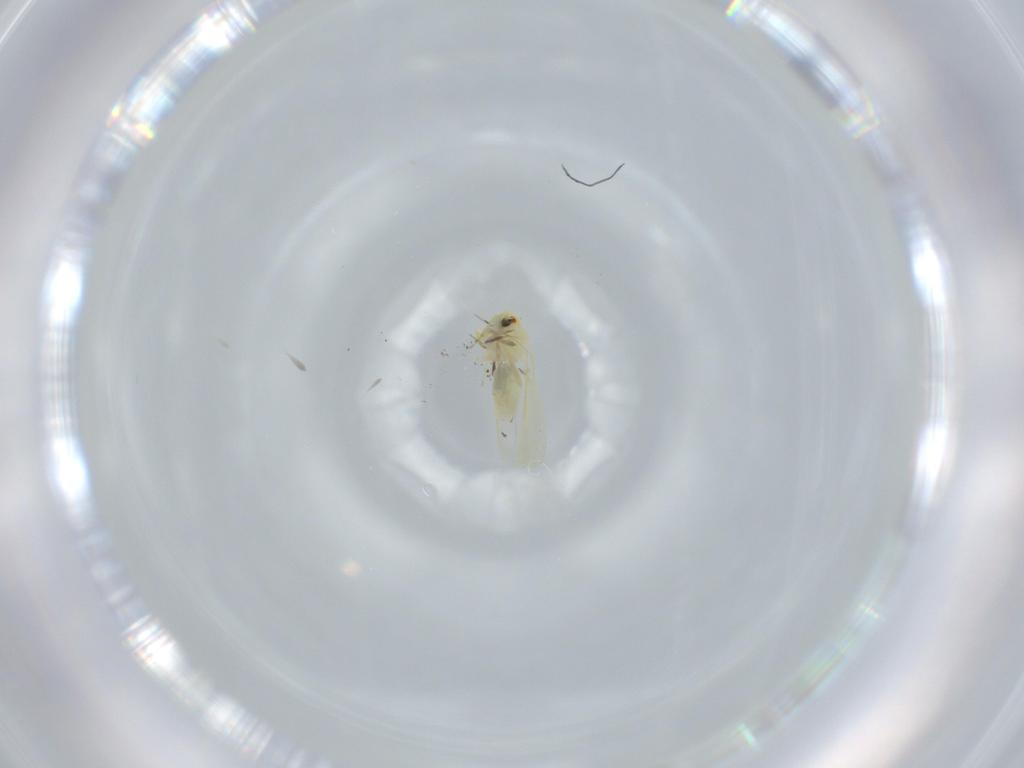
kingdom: Animalia
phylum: Arthropoda
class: Insecta
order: Hemiptera
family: Aleyrodidae
